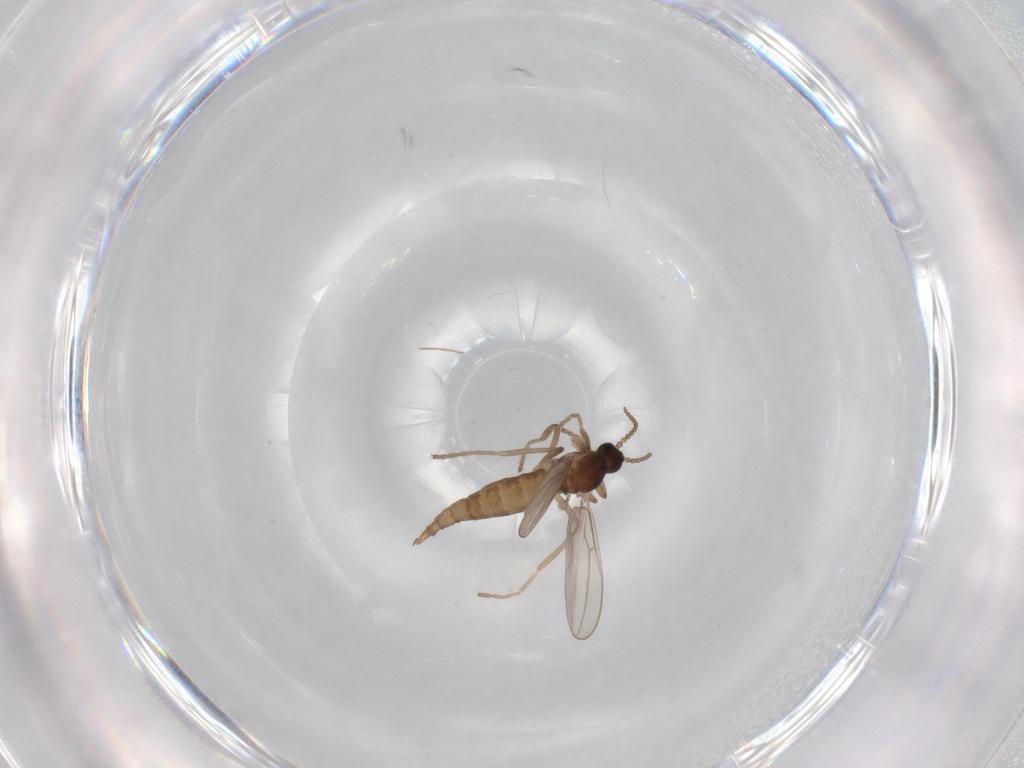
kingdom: Animalia
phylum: Arthropoda
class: Insecta
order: Diptera
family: Cecidomyiidae
